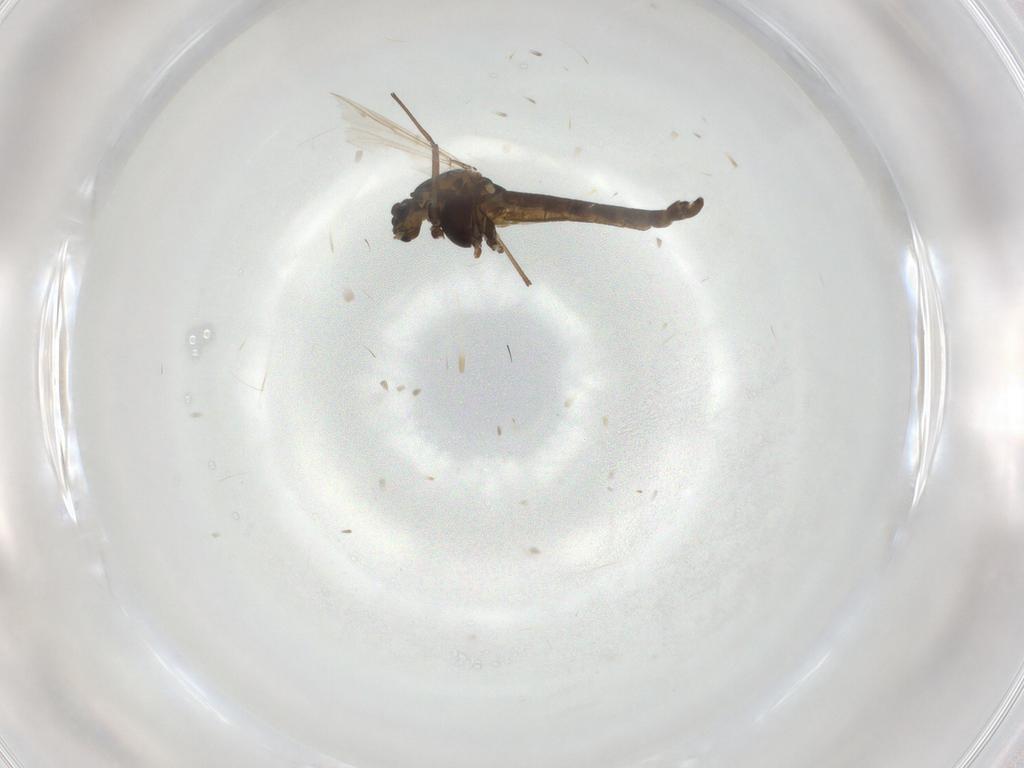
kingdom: Animalia
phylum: Arthropoda
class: Insecta
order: Diptera
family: Chironomidae
